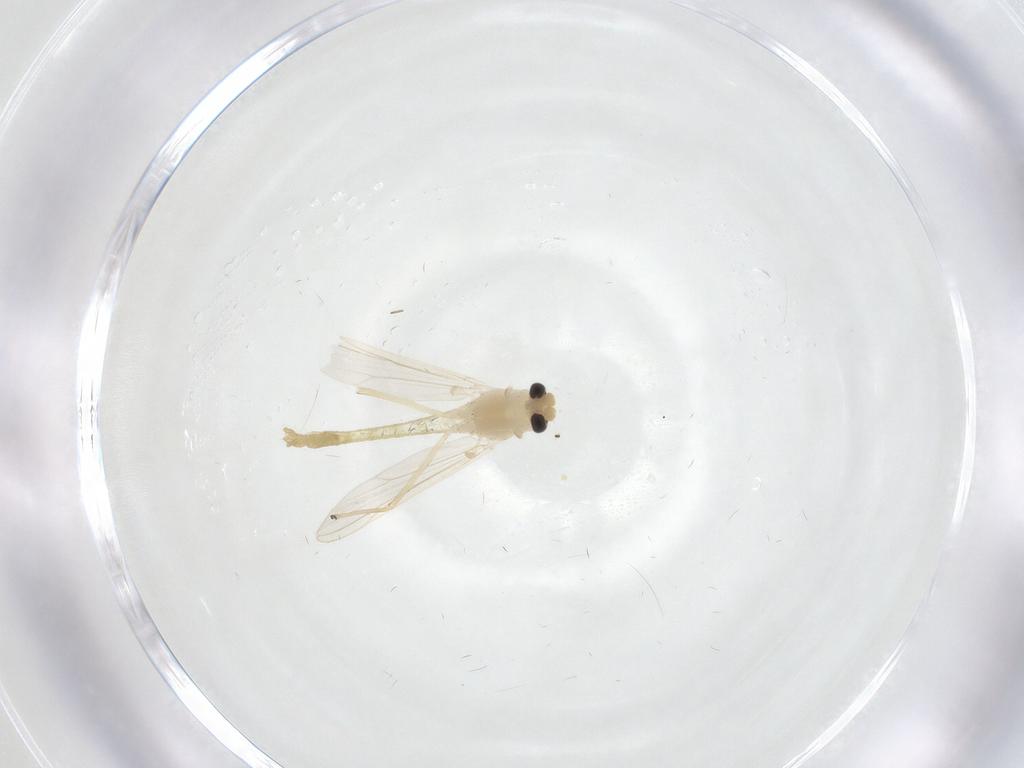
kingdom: Animalia
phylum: Arthropoda
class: Insecta
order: Diptera
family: Chironomidae
